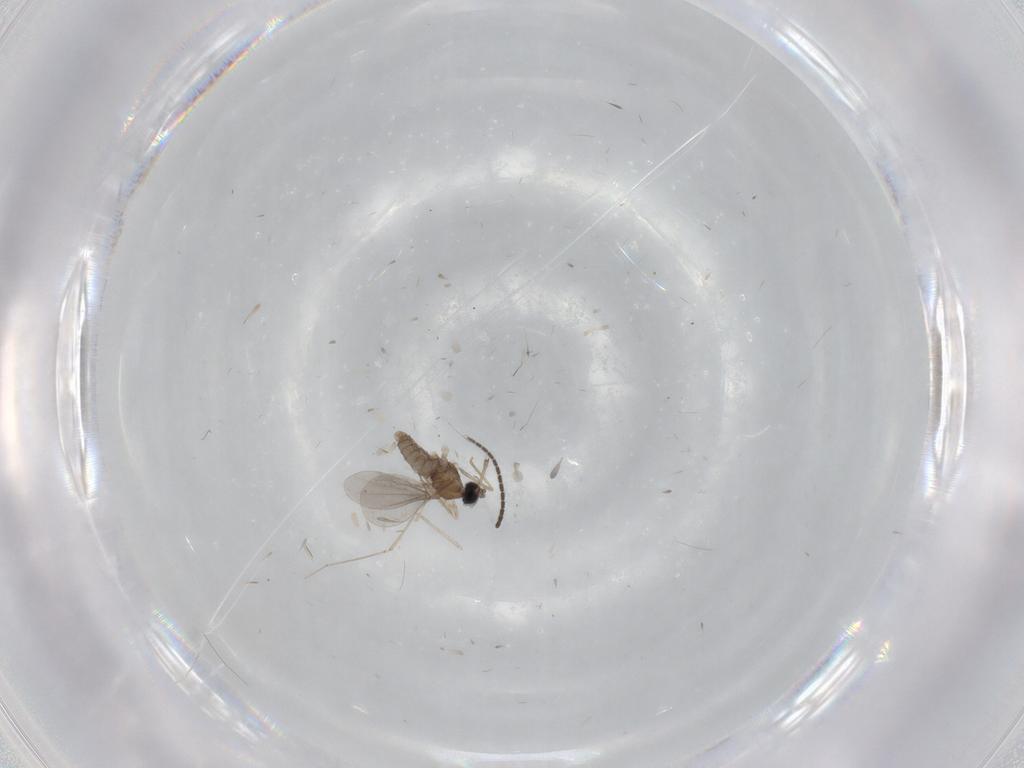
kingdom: Animalia
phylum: Arthropoda
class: Insecta
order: Diptera
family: Cecidomyiidae
